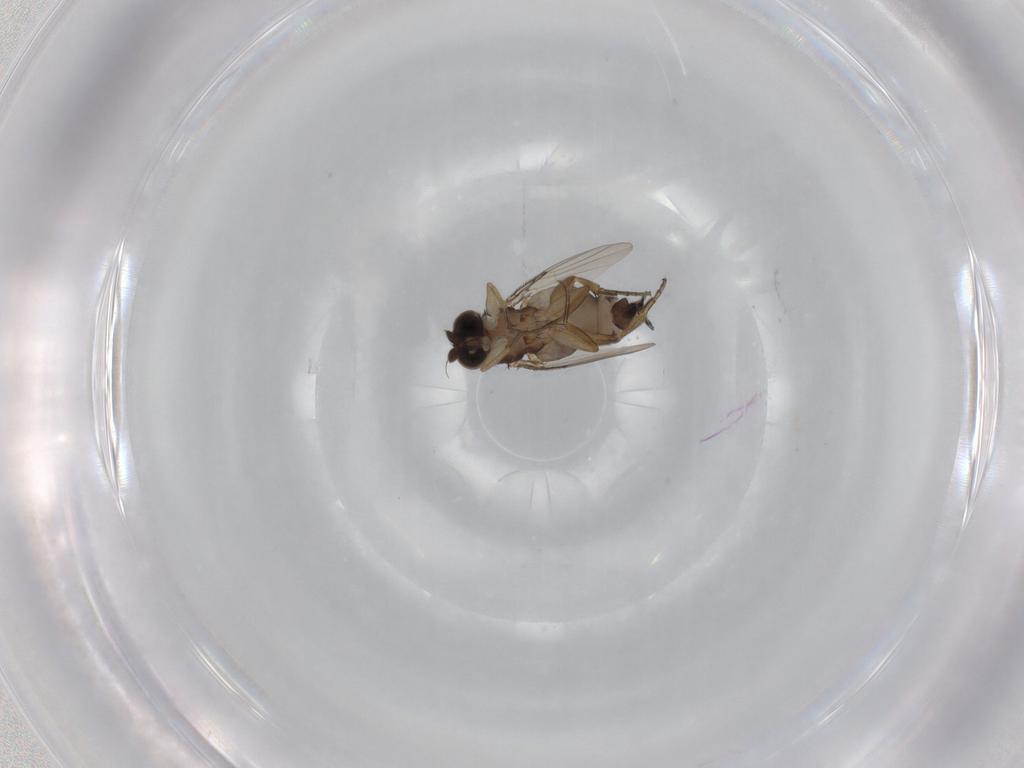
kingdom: Animalia
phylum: Arthropoda
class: Insecta
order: Diptera
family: Phoridae
